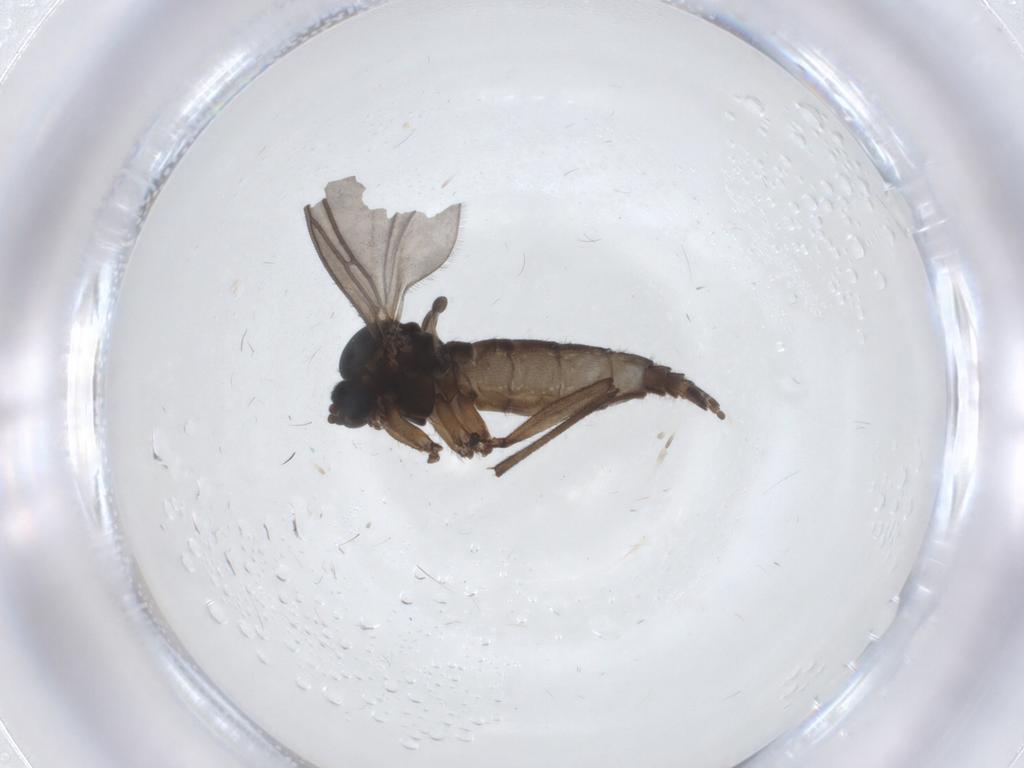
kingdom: Animalia
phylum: Arthropoda
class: Insecta
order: Diptera
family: Sciaridae
